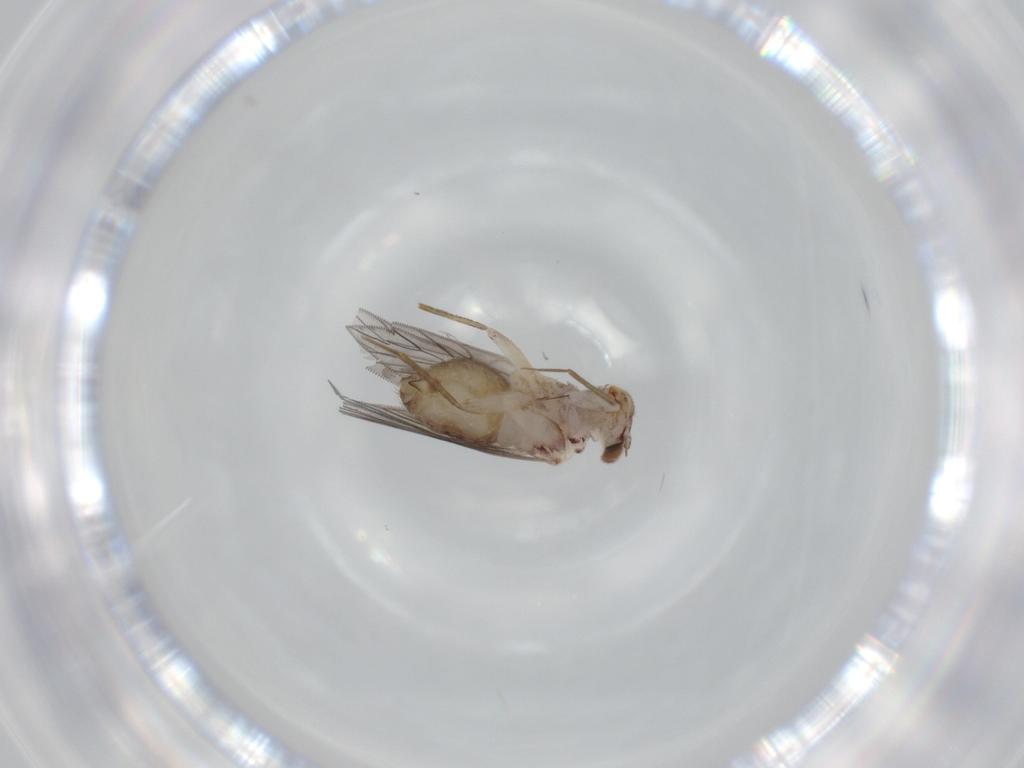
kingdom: Animalia
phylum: Arthropoda
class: Insecta
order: Psocodea
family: Lepidopsocidae
